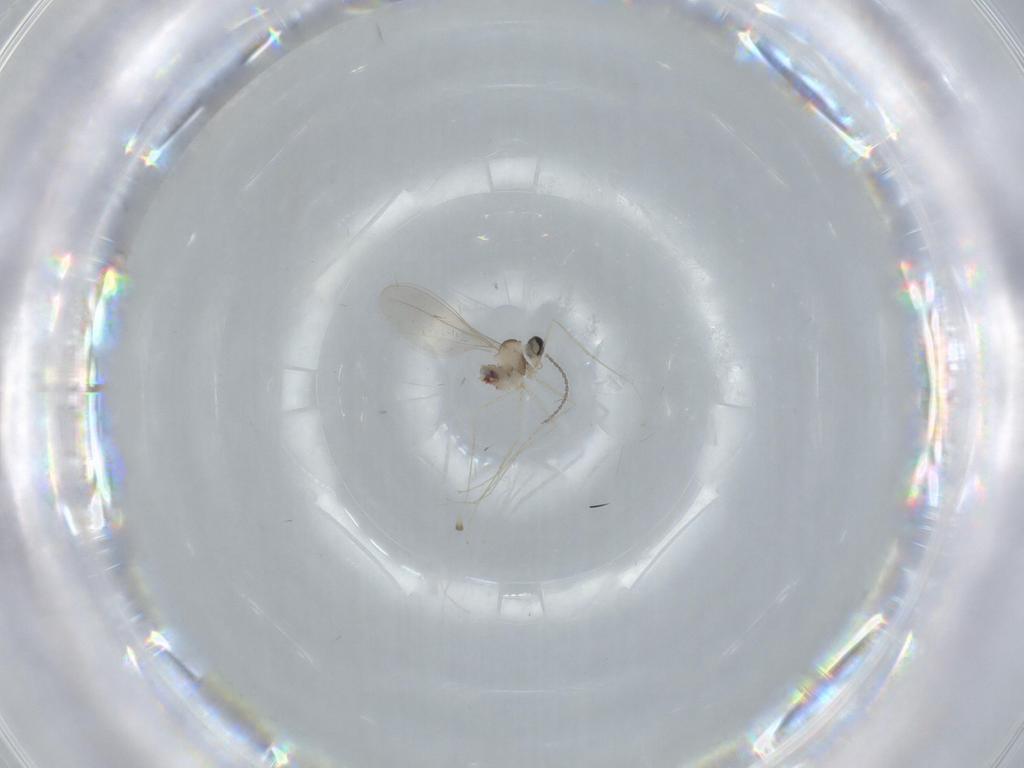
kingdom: Animalia
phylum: Arthropoda
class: Insecta
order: Diptera
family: Cecidomyiidae
